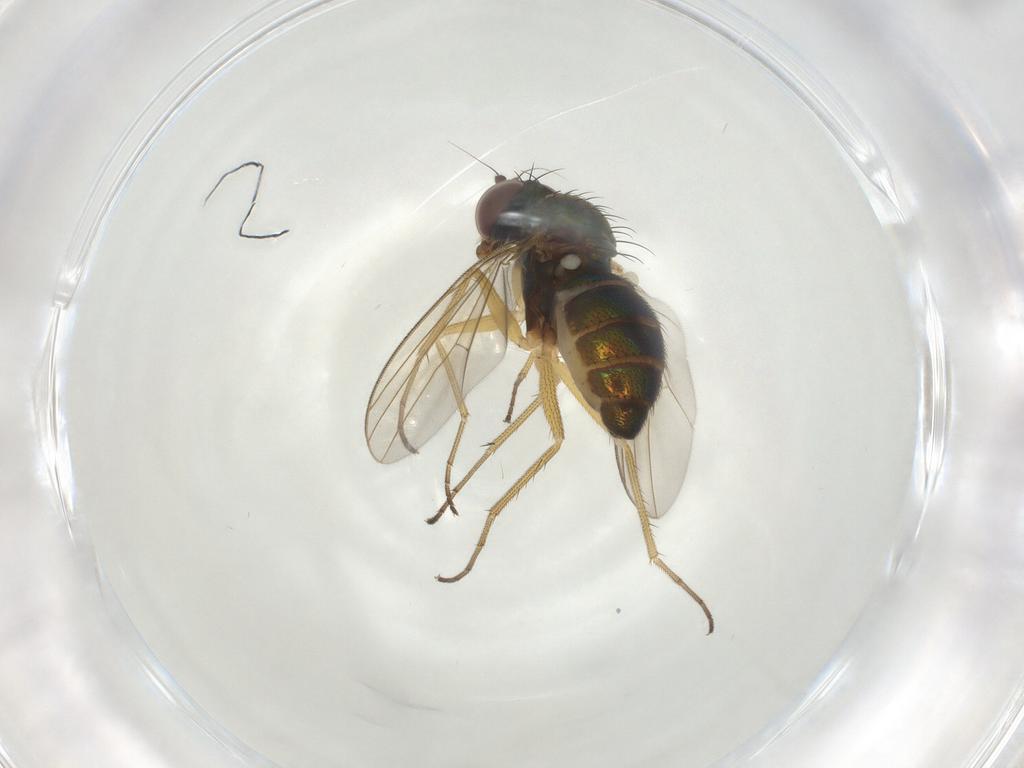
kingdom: Animalia
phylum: Arthropoda
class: Insecta
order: Diptera
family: Dolichopodidae
